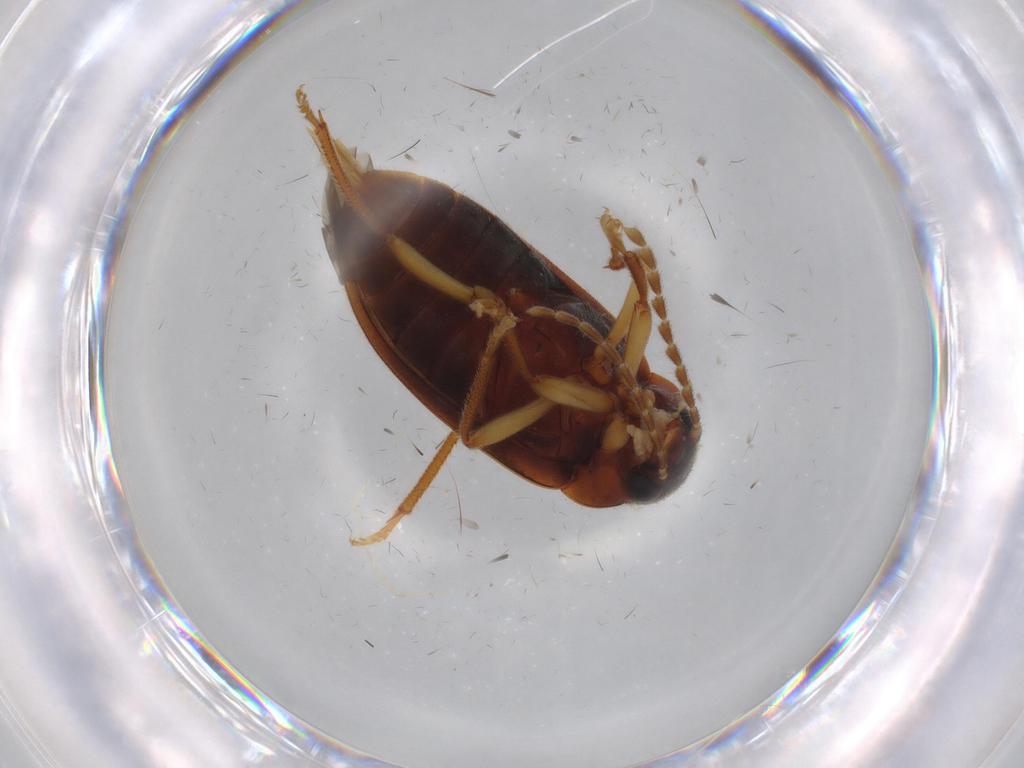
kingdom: Animalia
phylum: Arthropoda
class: Insecta
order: Coleoptera
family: Ptilodactylidae
